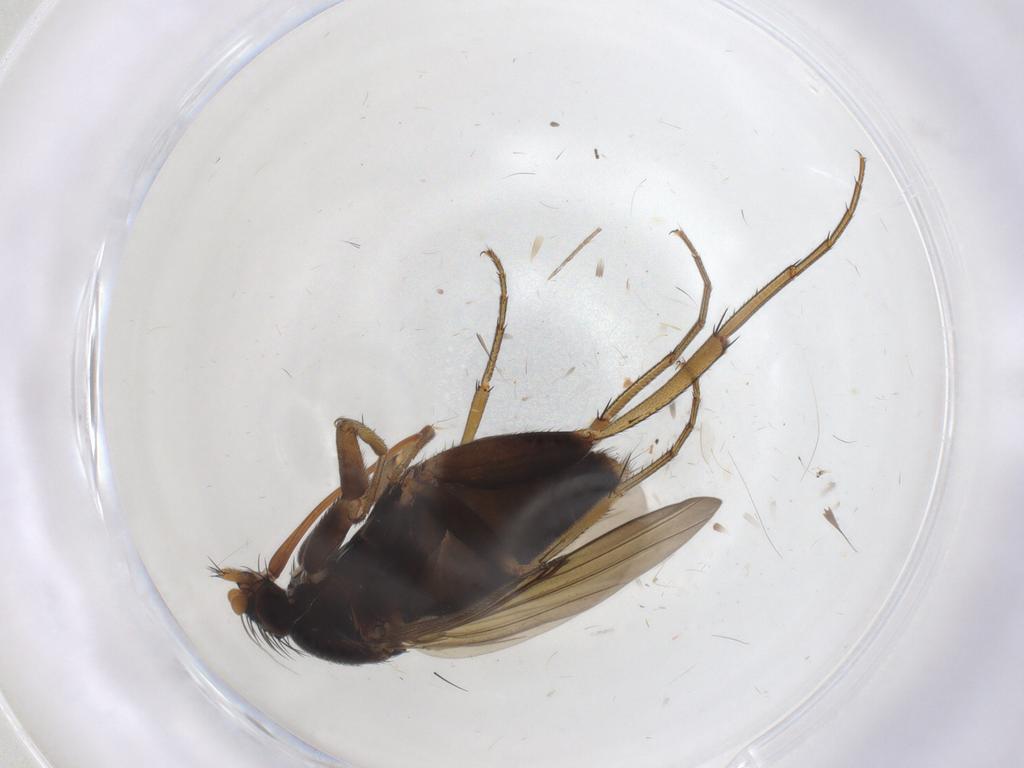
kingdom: Animalia
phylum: Arthropoda
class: Insecta
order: Diptera
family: Phoridae
